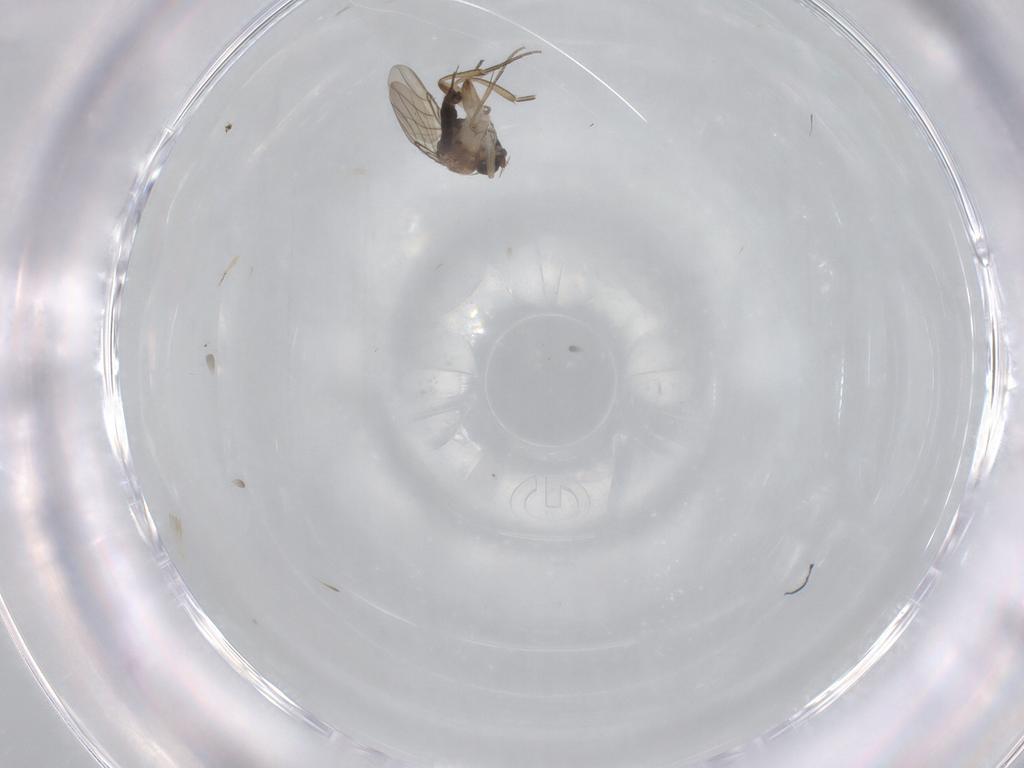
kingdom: Animalia
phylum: Arthropoda
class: Insecta
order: Diptera
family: Phoridae
